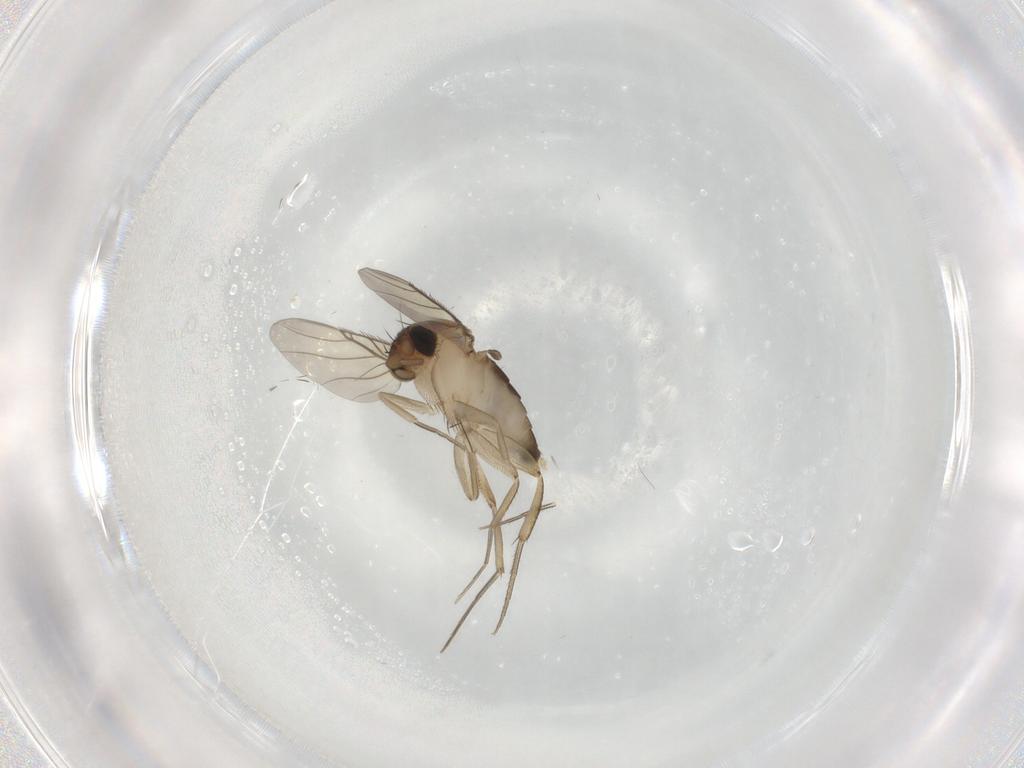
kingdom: Animalia
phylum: Arthropoda
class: Insecta
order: Diptera
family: Phoridae
